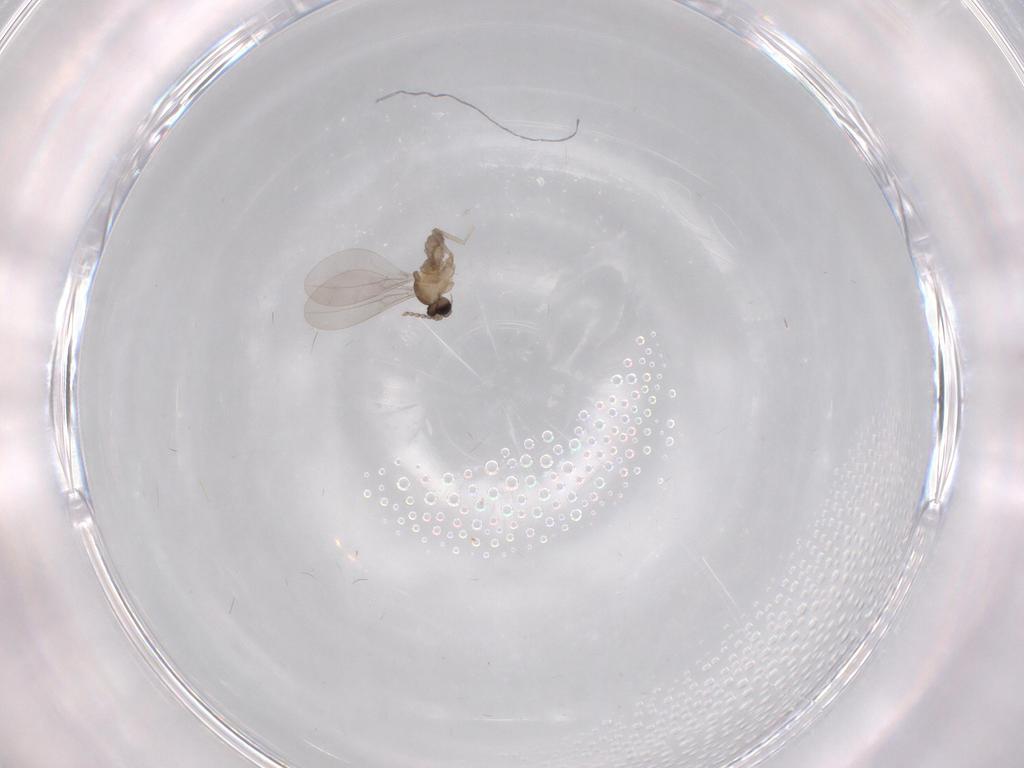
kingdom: Animalia
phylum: Arthropoda
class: Insecta
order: Diptera
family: Cecidomyiidae
